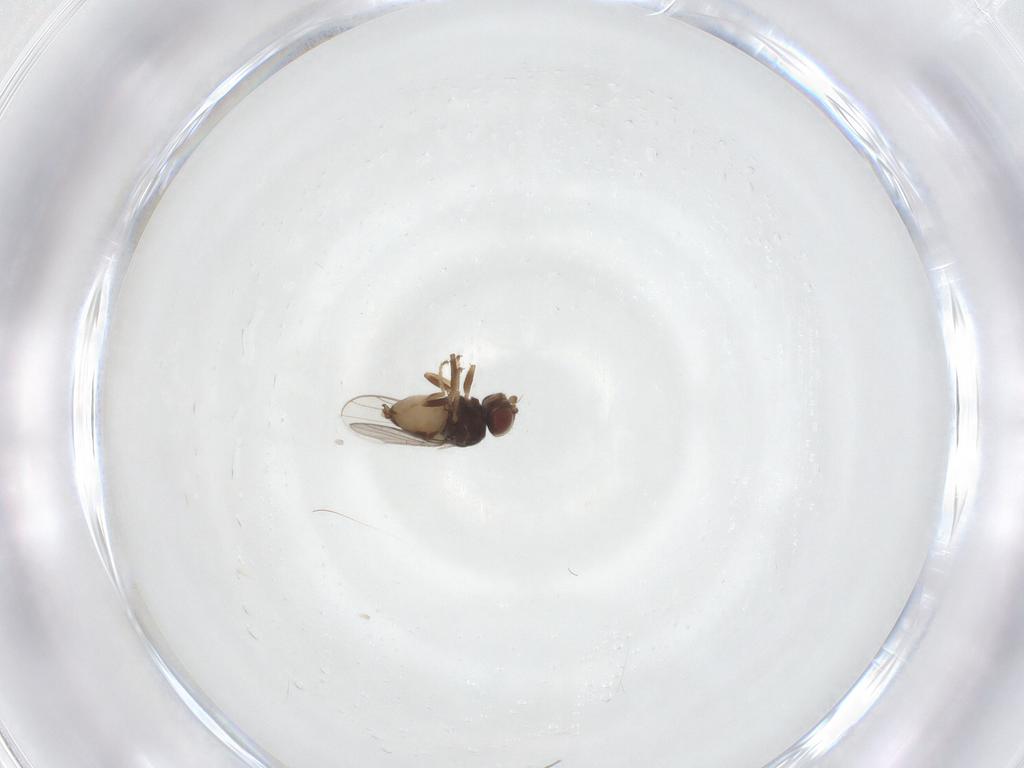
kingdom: Animalia
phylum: Arthropoda
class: Insecta
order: Diptera
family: Chloropidae
